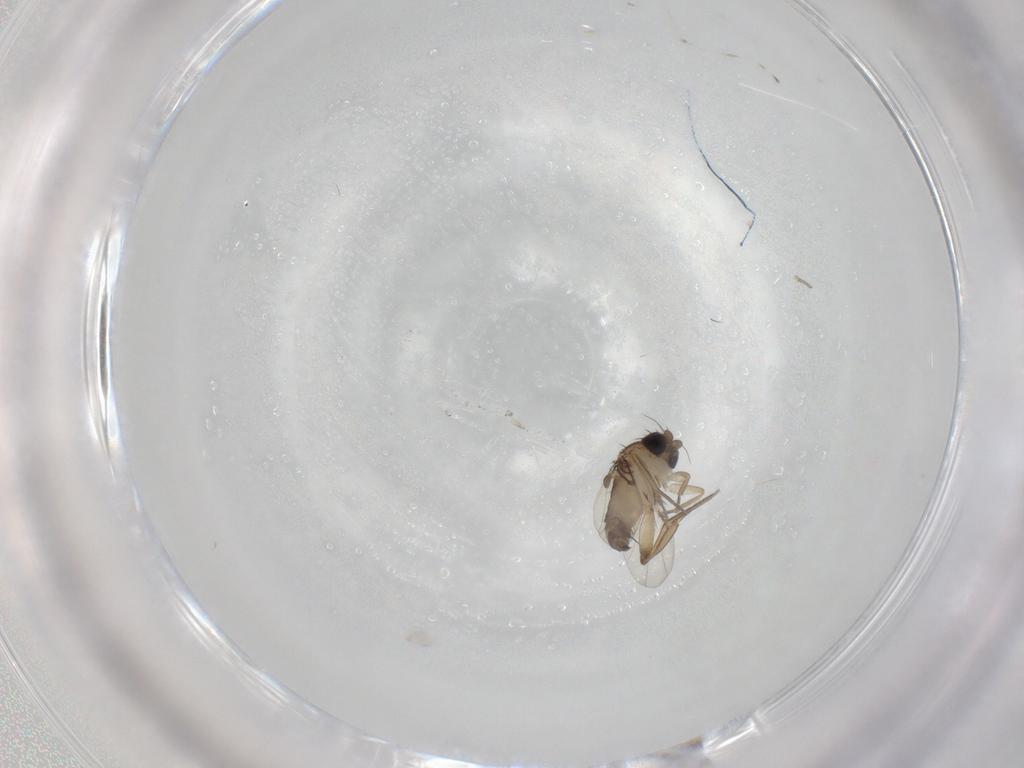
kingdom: Animalia
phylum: Arthropoda
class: Insecta
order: Diptera
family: Phoridae
